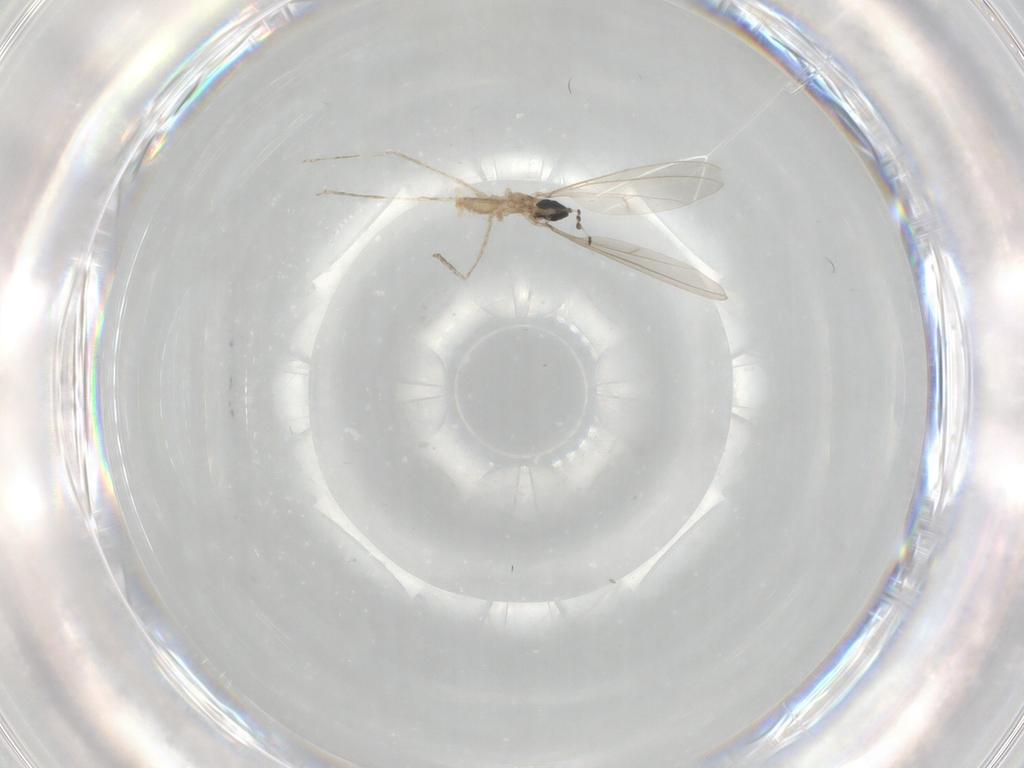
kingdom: Animalia
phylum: Arthropoda
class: Insecta
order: Diptera
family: Cecidomyiidae
